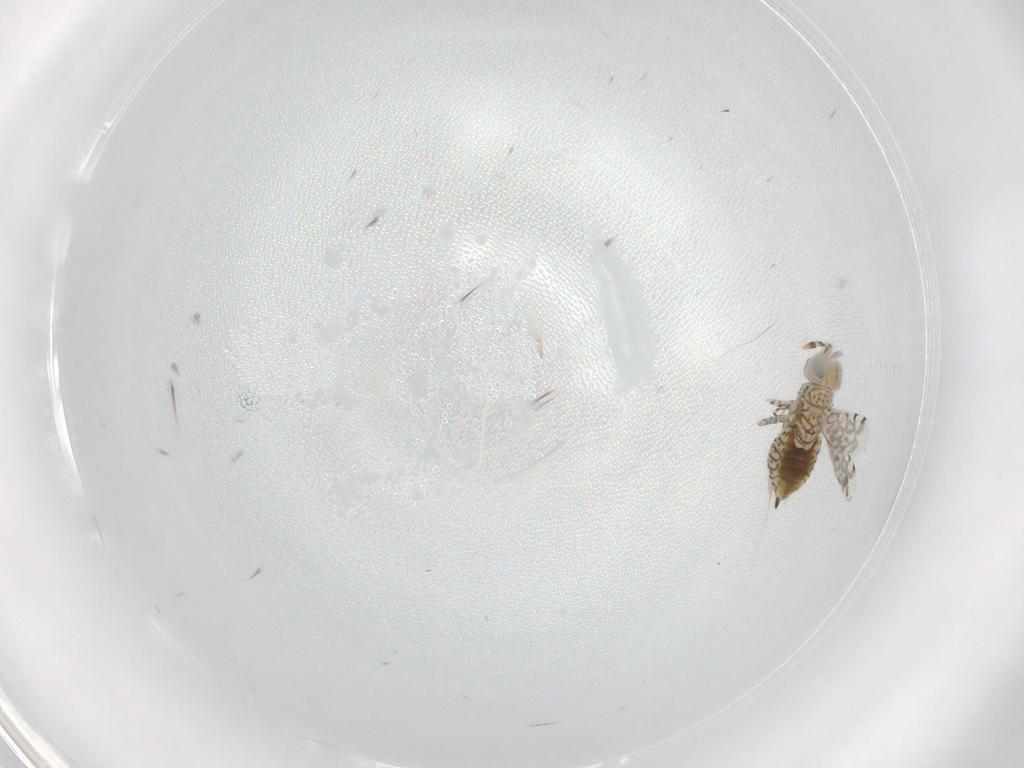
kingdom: Animalia
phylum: Arthropoda
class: Insecta
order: Hymenoptera
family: Aphelinidae
